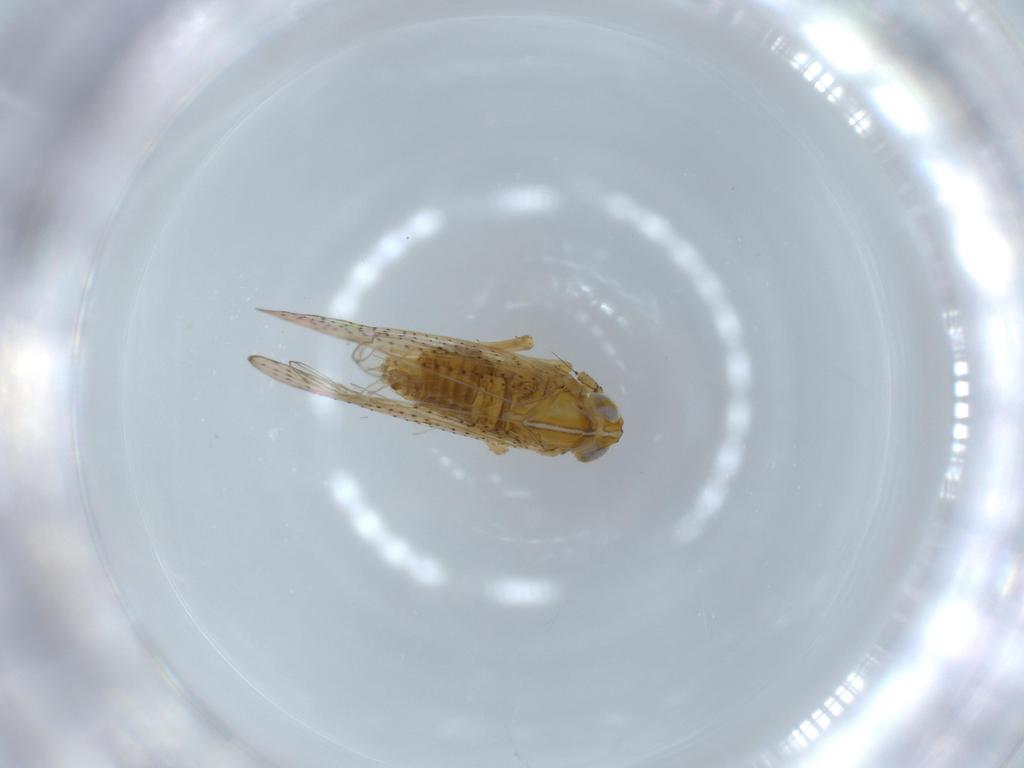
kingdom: Animalia
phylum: Arthropoda
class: Insecta
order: Hemiptera
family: Delphacidae
